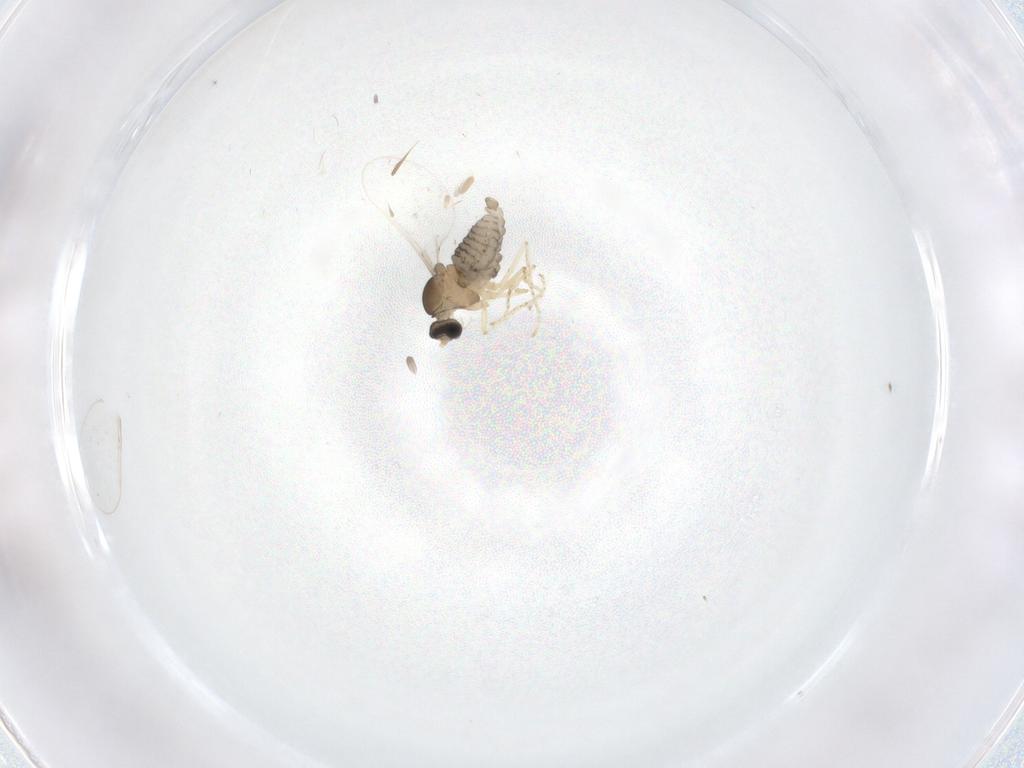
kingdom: Animalia
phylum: Arthropoda
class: Insecta
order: Diptera
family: Cecidomyiidae
